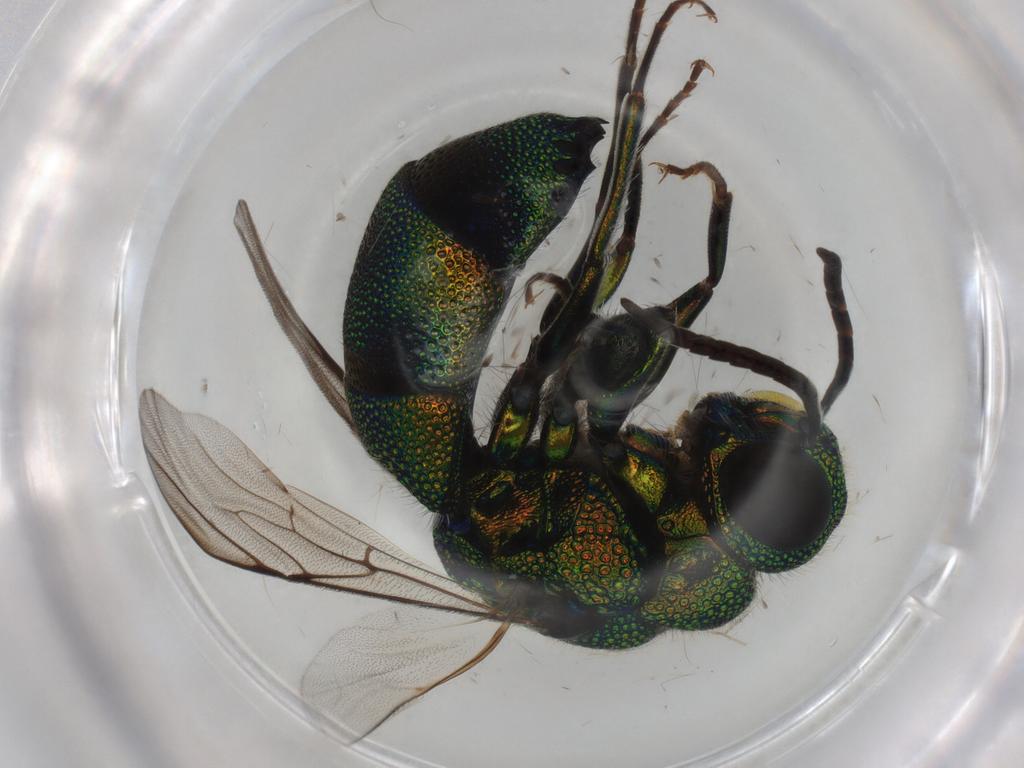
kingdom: Animalia
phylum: Arthropoda
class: Insecta
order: Hymenoptera
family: Chrysididae
